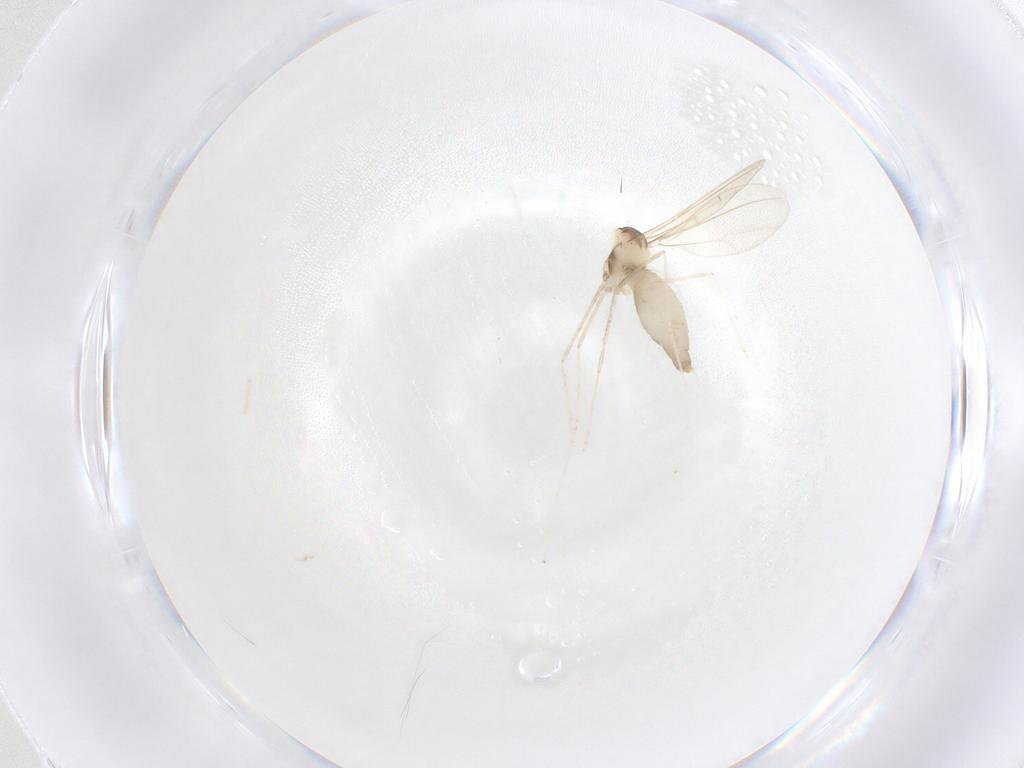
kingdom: Animalia
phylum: Arthropoda
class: Insecta
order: Diptera
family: Cecidomyiidae
